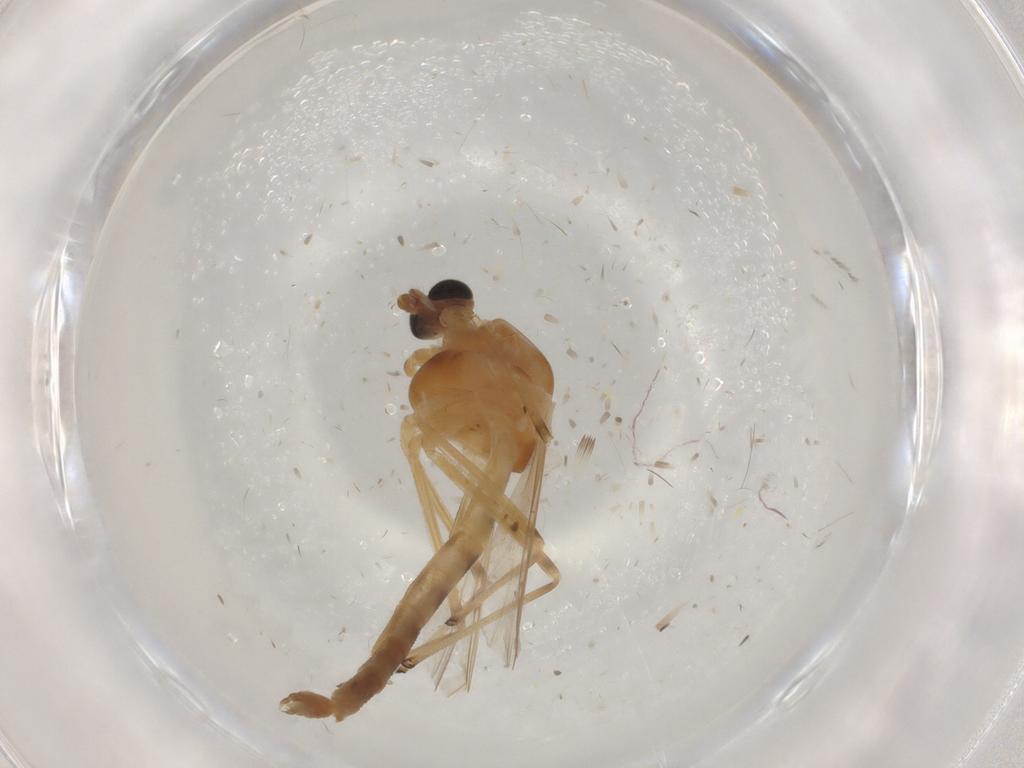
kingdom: Animalia
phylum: Arthropoda
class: Insecta
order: Diptera
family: Chironomidae
